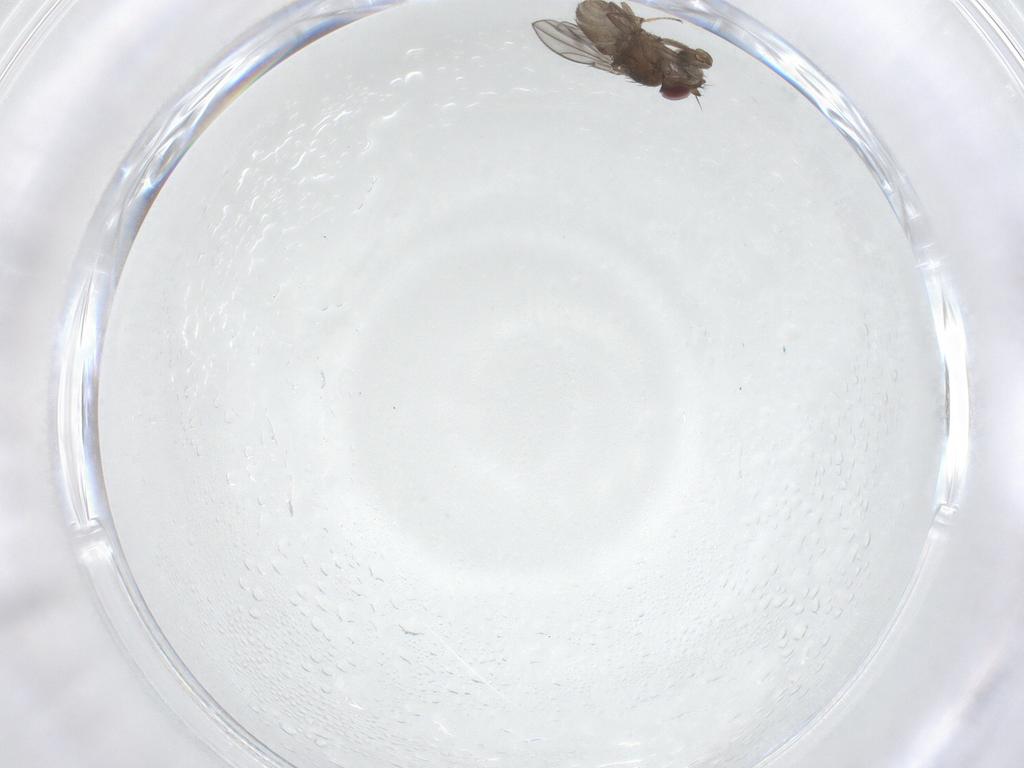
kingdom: Animalia
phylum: Arthropoda
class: Insecta
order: Diptera
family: Ephydridae
